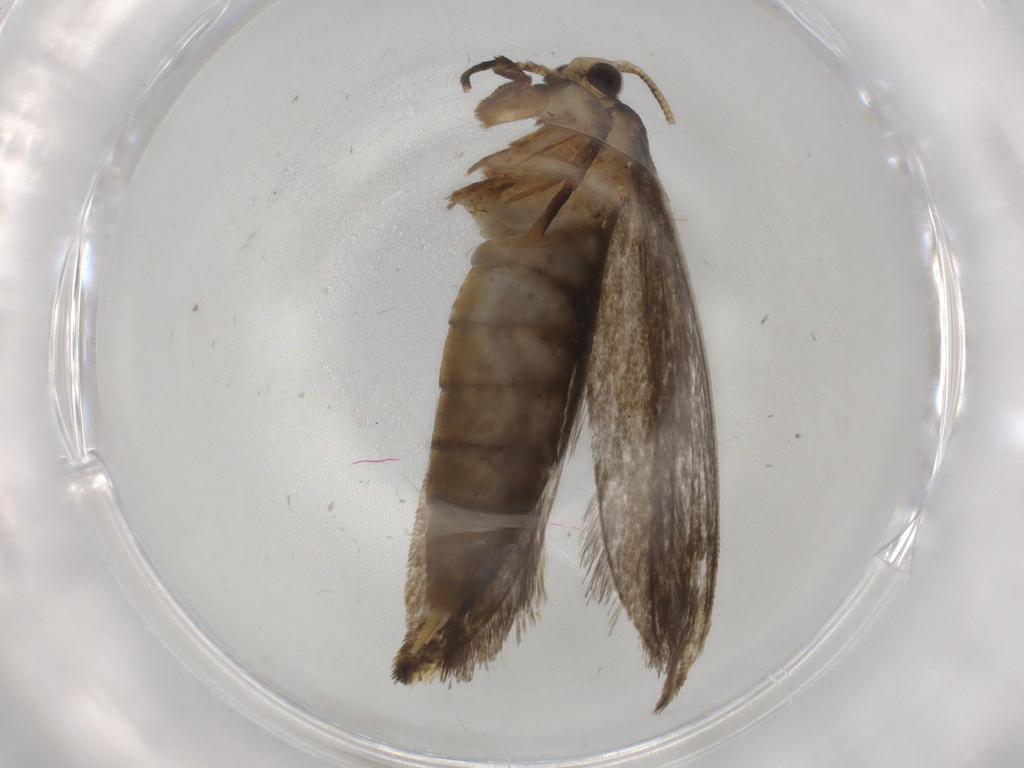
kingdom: Animalia
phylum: Arthropoda
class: Insecta
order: Lepidoptera
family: Tineidae
